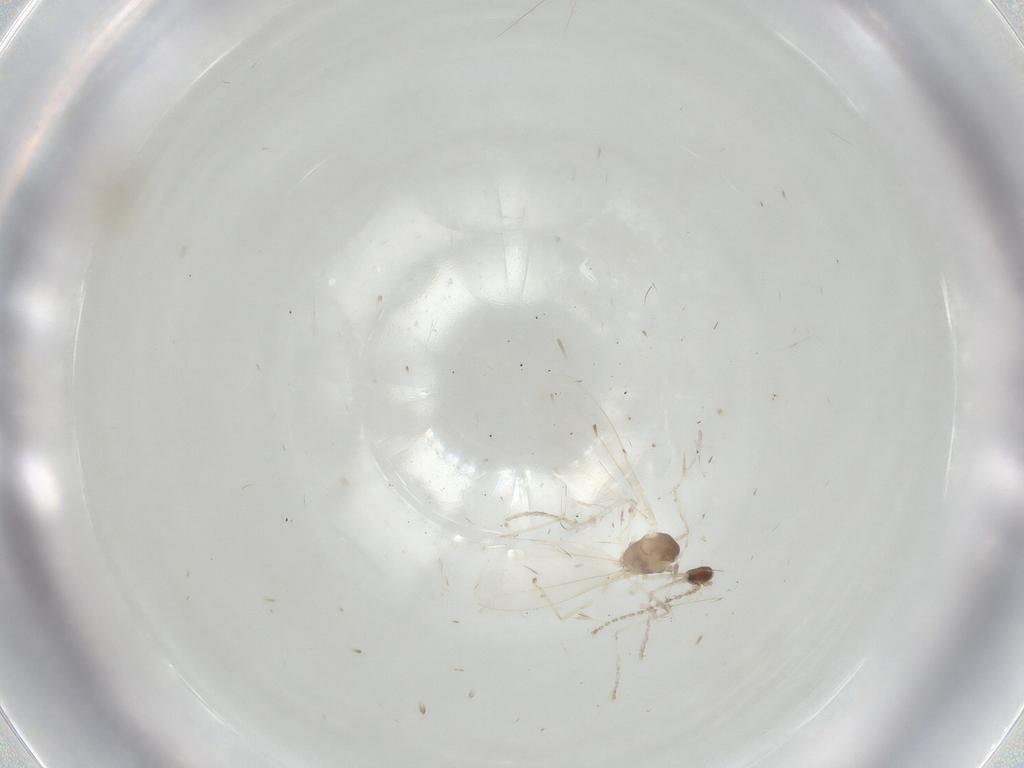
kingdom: Animalia
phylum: Arthropoda
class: Insecta
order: Diptera
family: Cecidomyiidae
